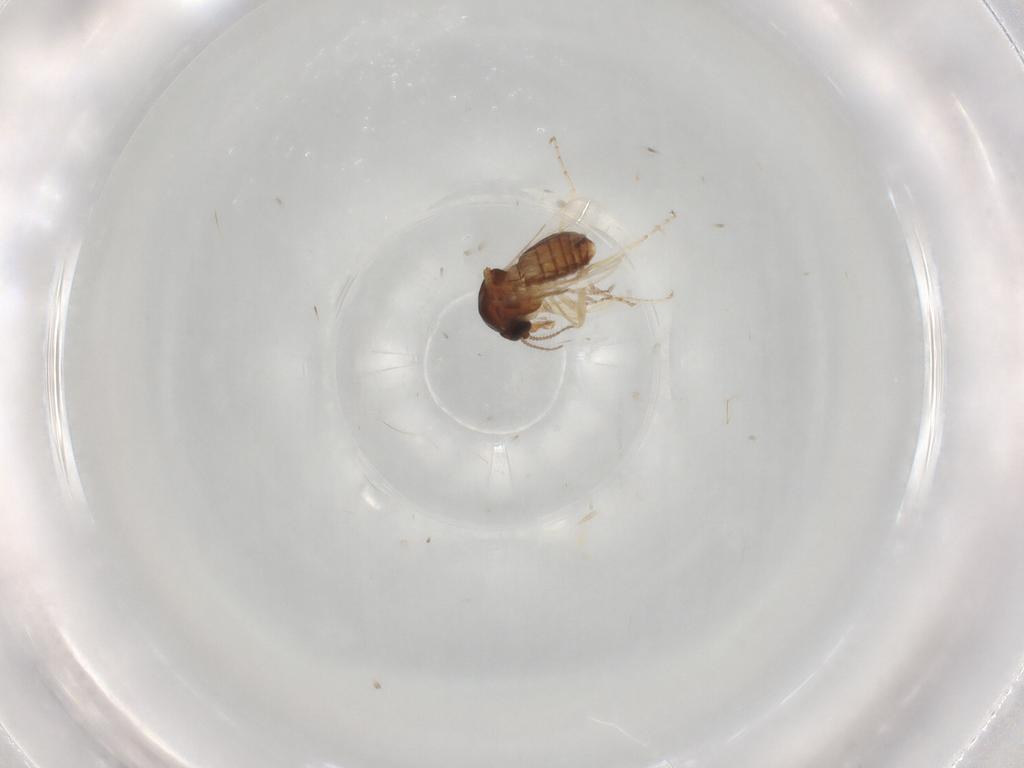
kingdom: Animalia
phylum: Arthropoda
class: Insecta
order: Diptera
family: Ceratopogonidae
